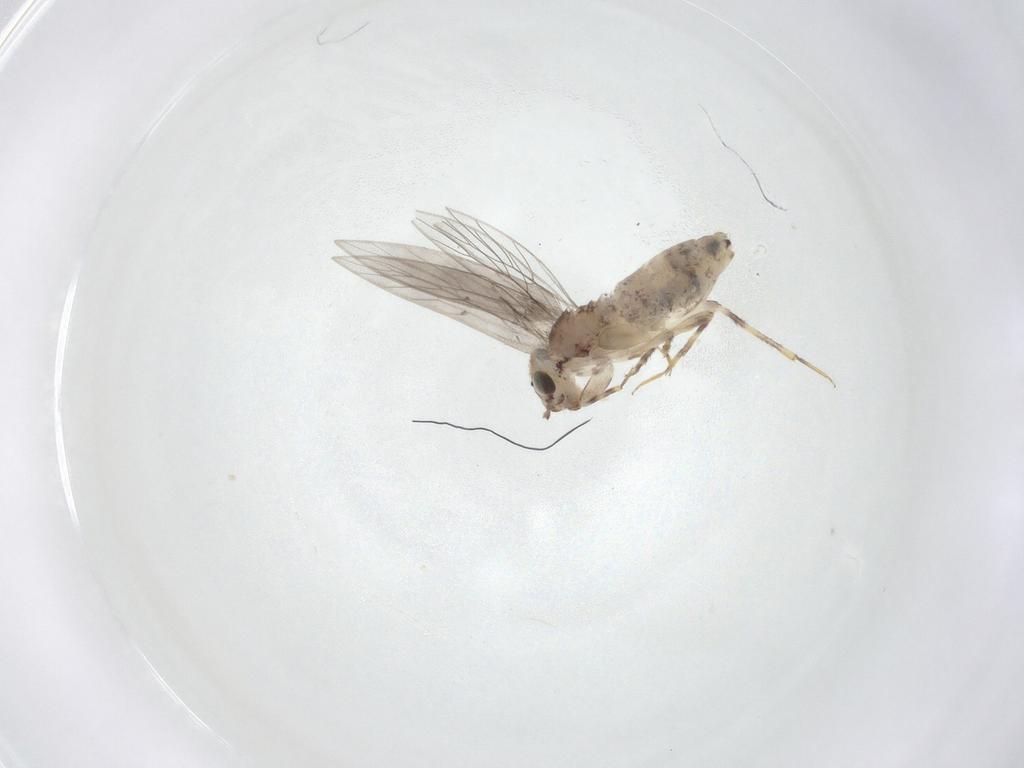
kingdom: Animalia
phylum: Arthropoda
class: Insecta
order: Psocodea
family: Lepidopsocidae
